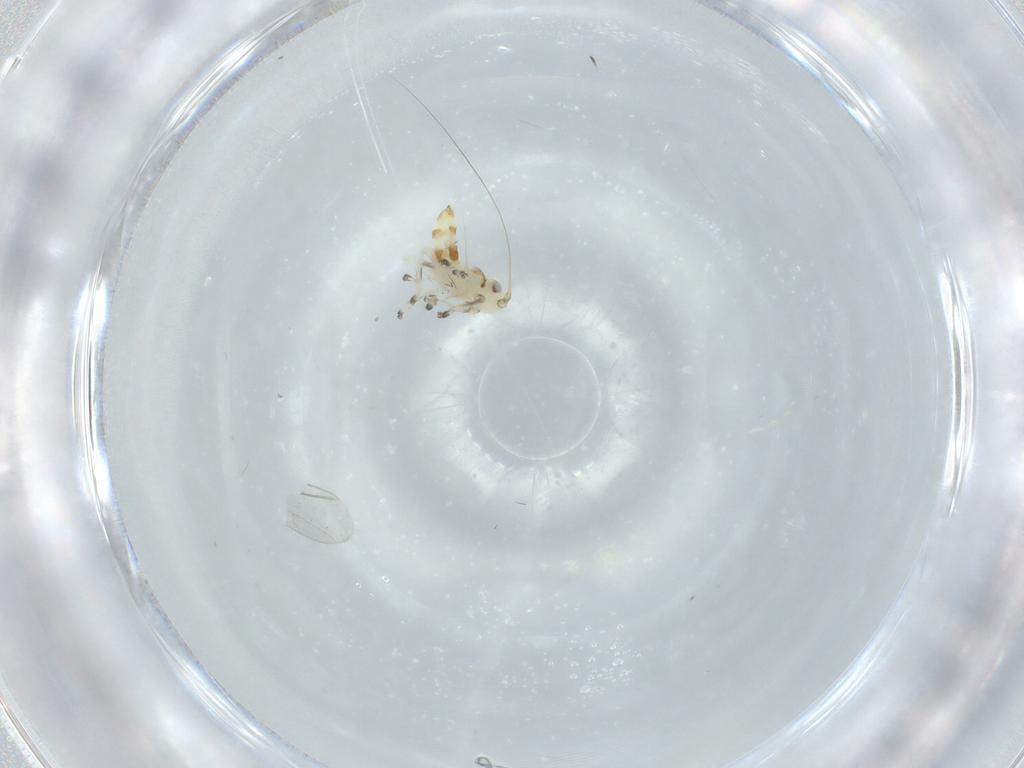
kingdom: Animalia
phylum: Arthropoda
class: Insecta
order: Hemiptera
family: Cicadellidae
